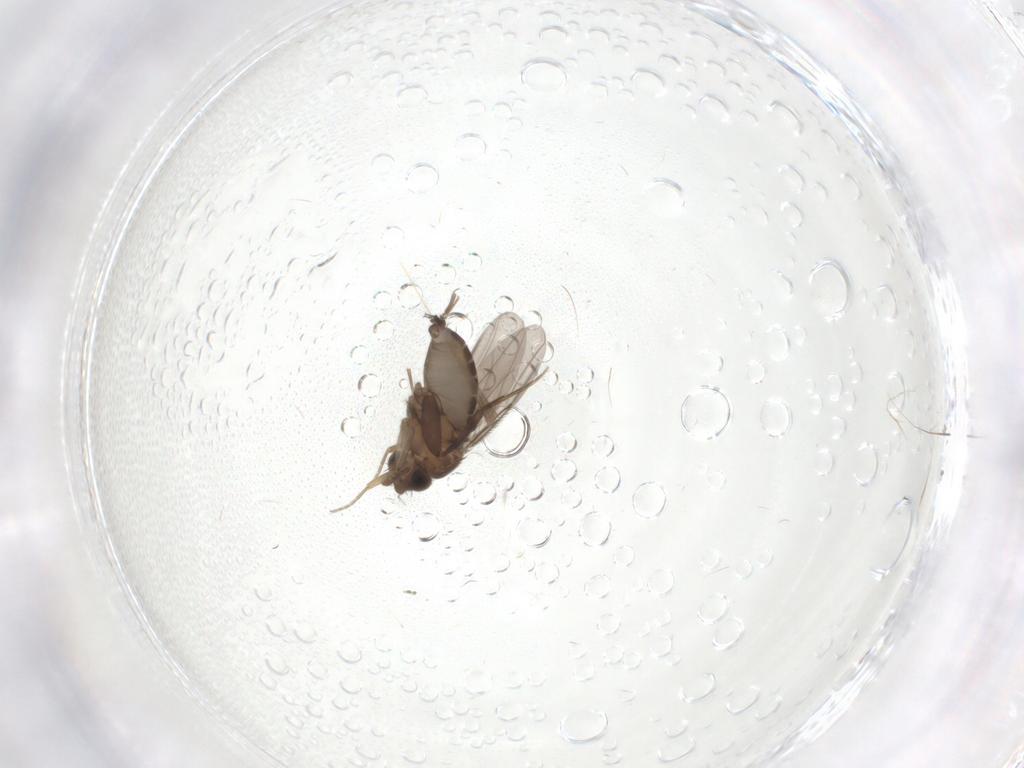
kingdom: Animalia
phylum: Arthropoda
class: Insecta
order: Diptera
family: Phoridae
